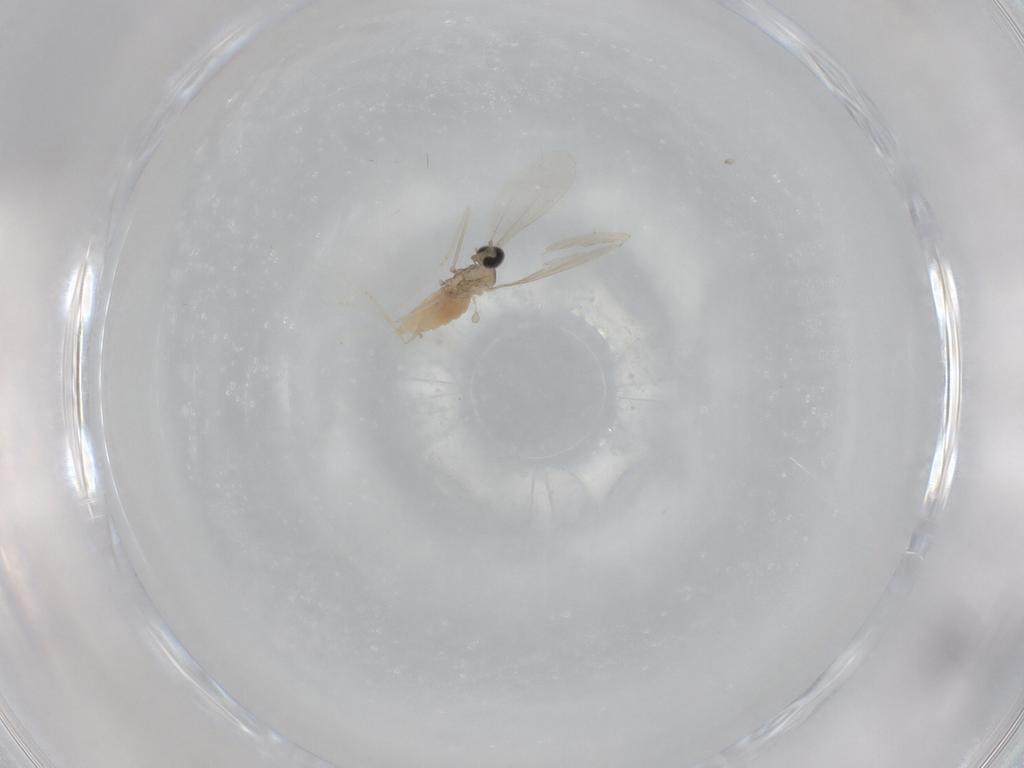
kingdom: Animalia
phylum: Arthropoda
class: Insecta
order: Diptera
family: Cecidomyiidae
